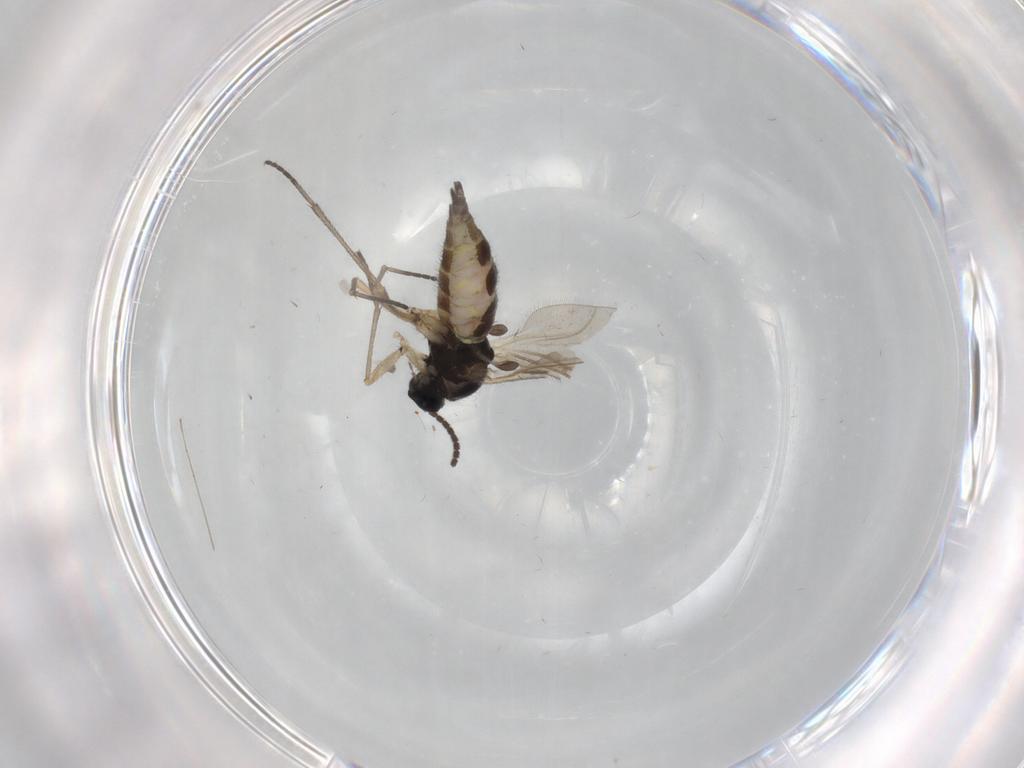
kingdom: Animalia
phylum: Arthropoda
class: Insecta
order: Diptera
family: Sciaridae
